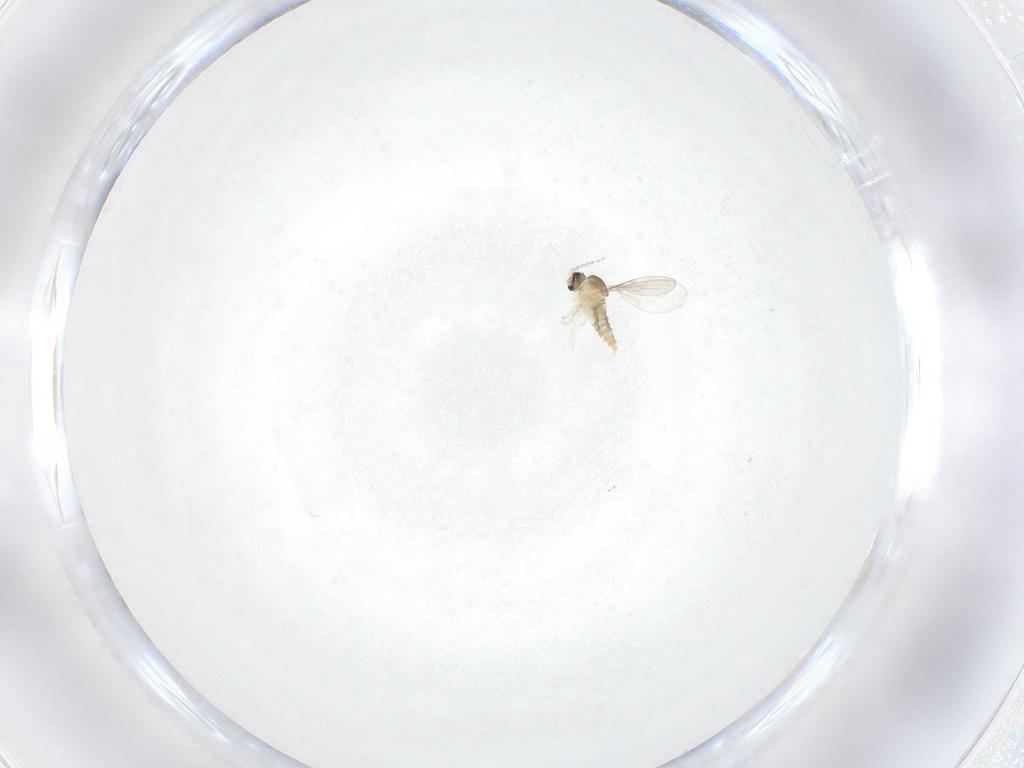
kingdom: Animalia
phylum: Arthropoda
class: Insecta
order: Diptera
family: Cecidomyiidae
